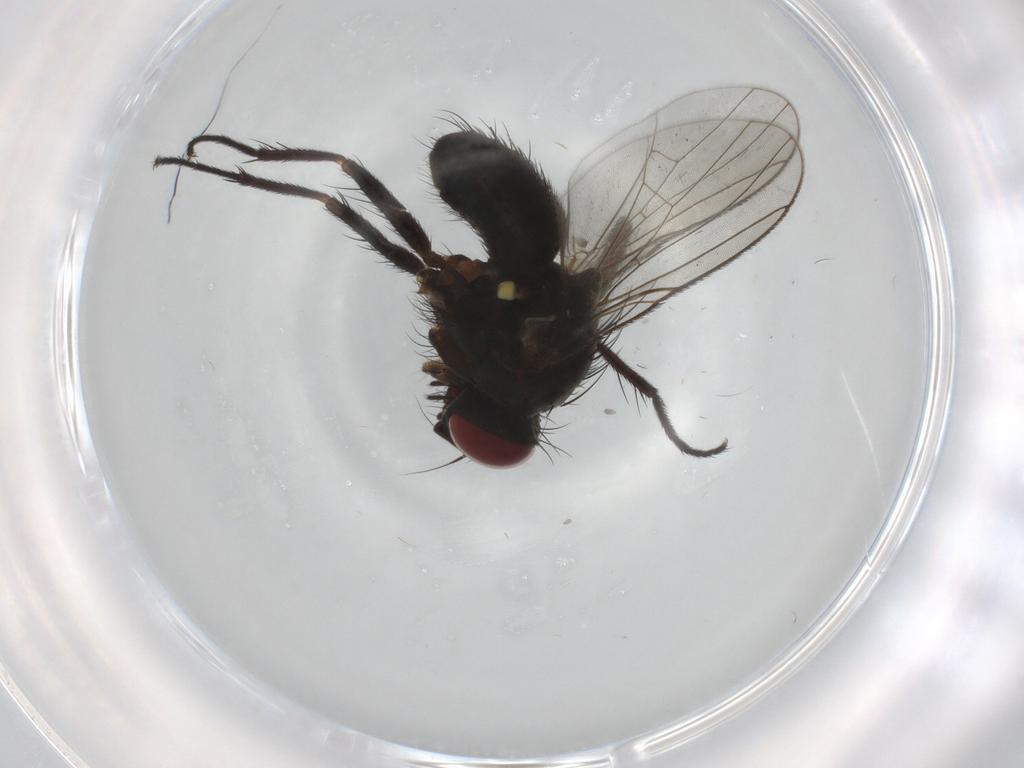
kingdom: Animalia
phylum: Arthropoda
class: Insecta
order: Diptera
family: Muscidae
